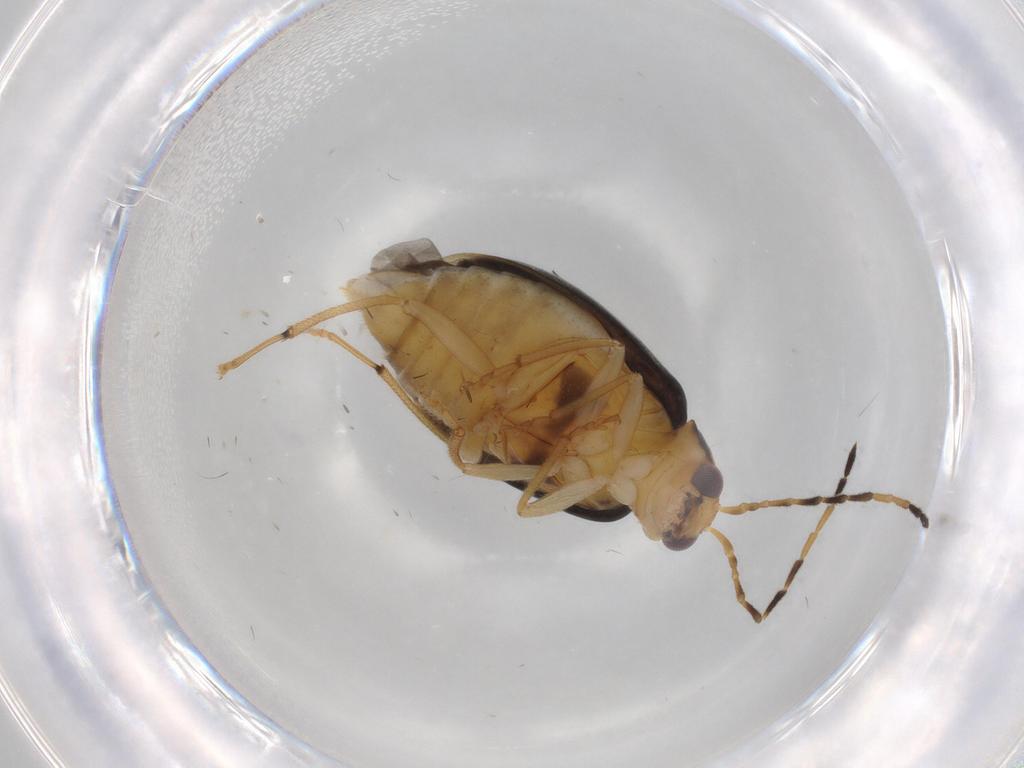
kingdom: Animalia
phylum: Arthropoda
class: Insecta
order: Coleoptera
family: Chrysomelidae
